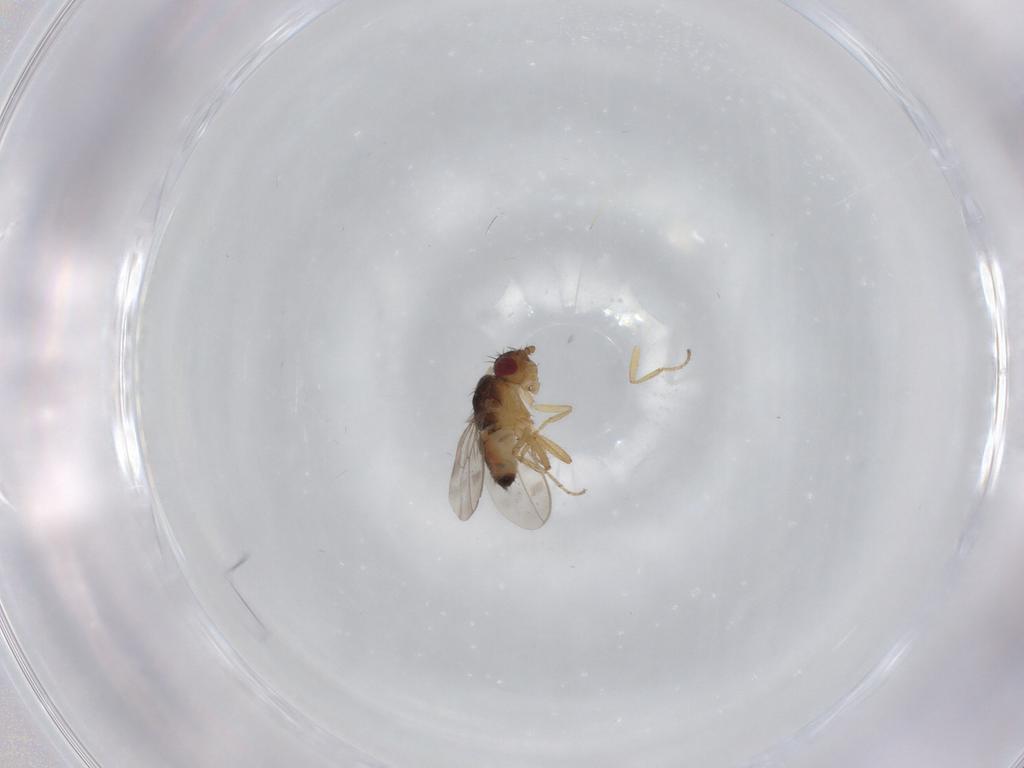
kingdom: Animalia
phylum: Arthropoda
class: Insecta
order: Diptera
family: Sphaeroceridae
